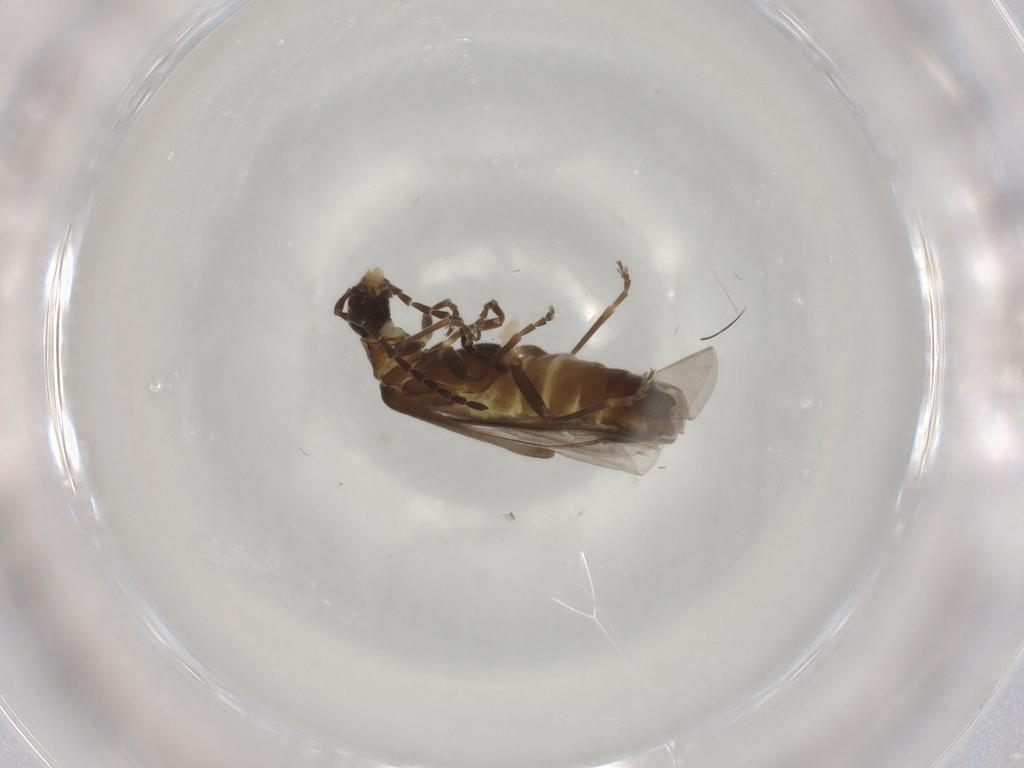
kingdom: Animalia
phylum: Arthropoda
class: Insecta
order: Coleoptera
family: Cantharidae
